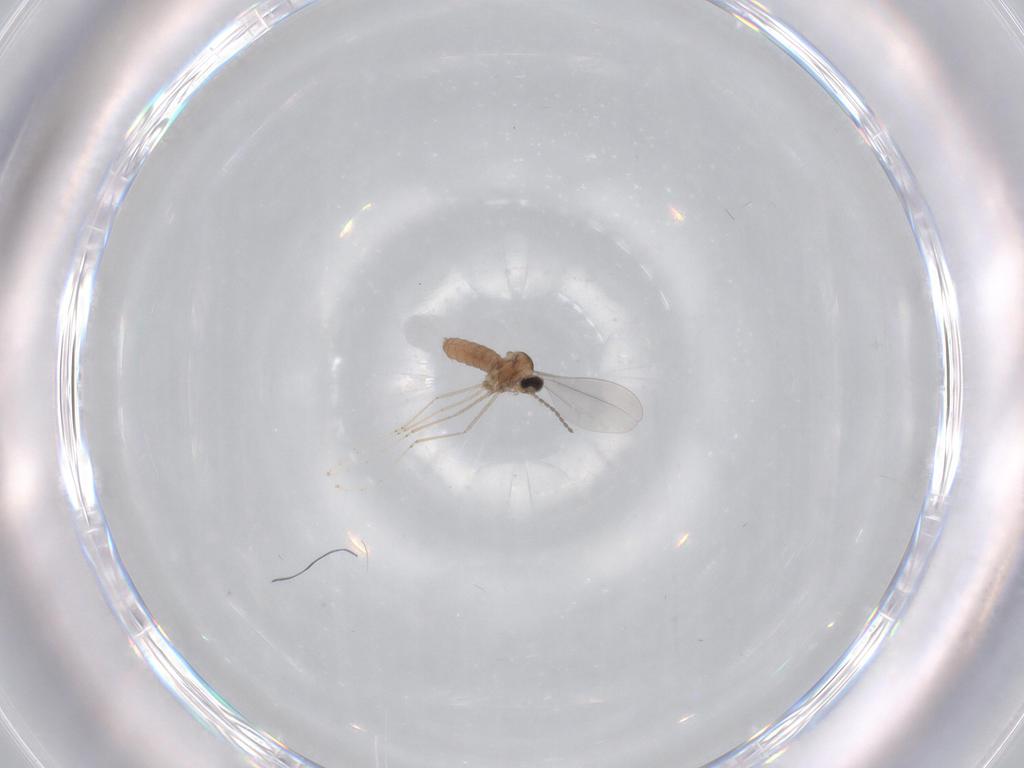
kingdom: Animalia
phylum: Arthropoda
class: Insecta
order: Diptera
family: Cecidomyiidae
